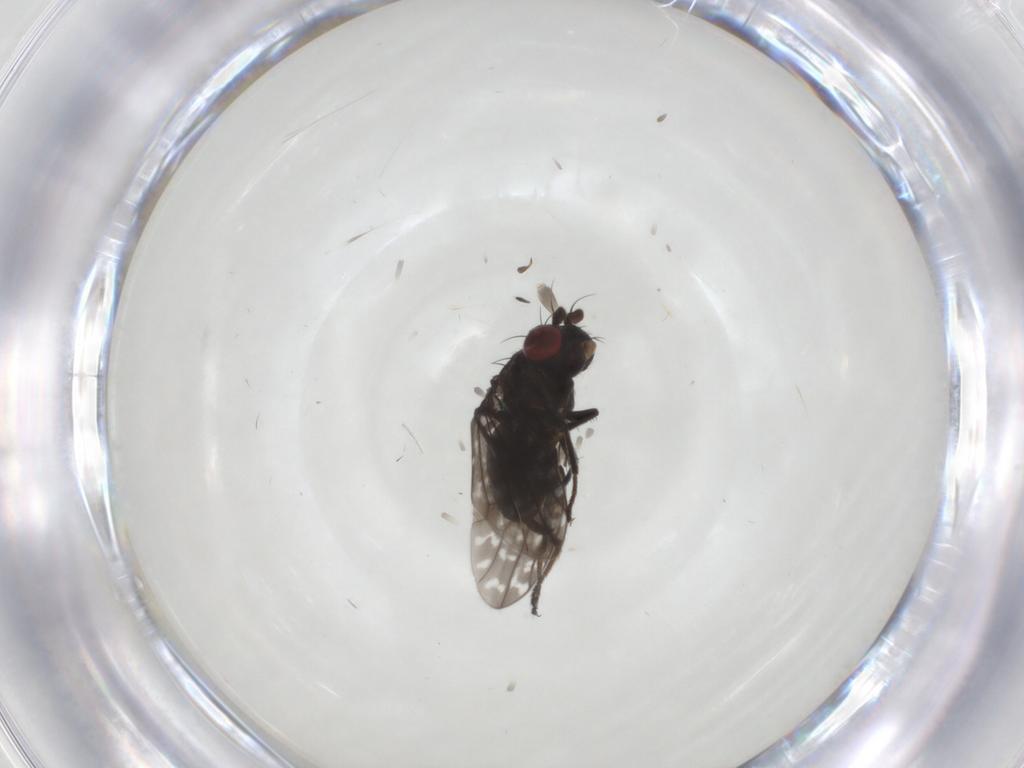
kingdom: Animalia
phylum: Arthropoda
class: Insecta
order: Diptera
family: Ephydridae
